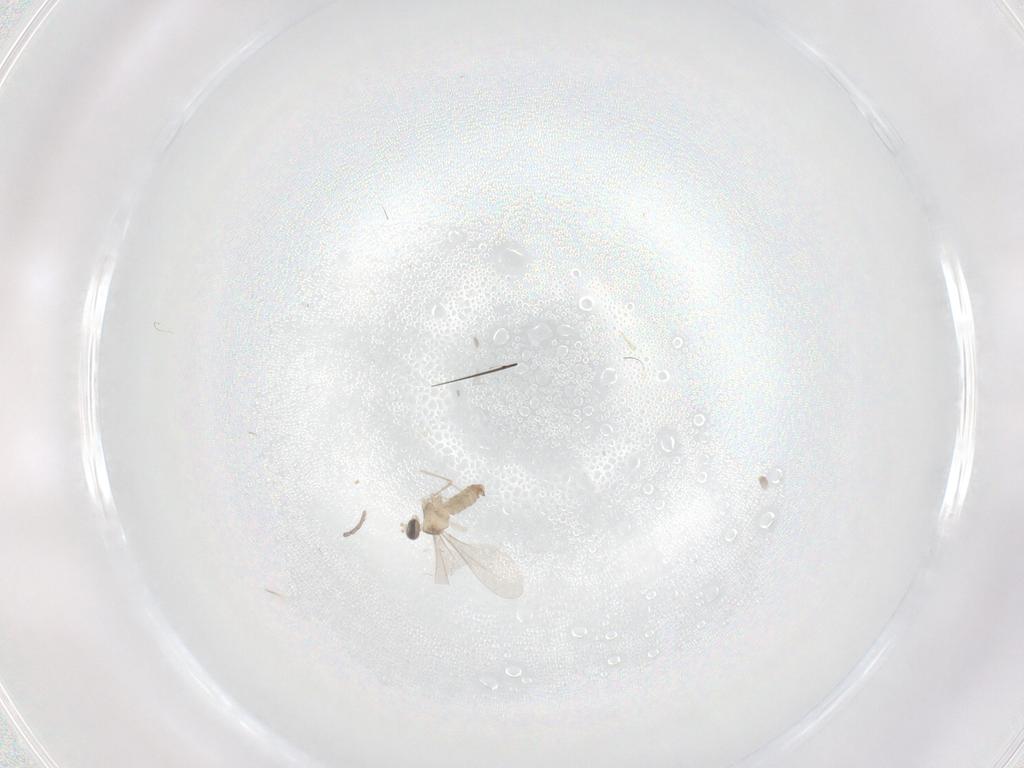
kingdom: Animalia
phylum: Arthropoda
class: Insecta
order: Diptera
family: Cecidomyiidae
